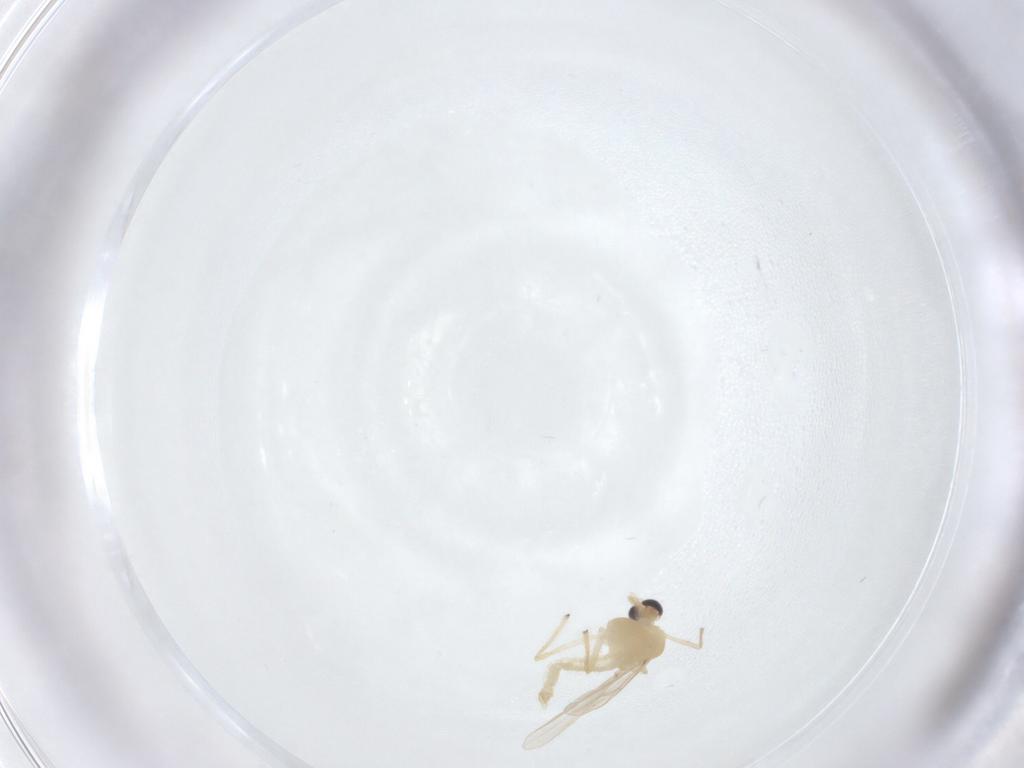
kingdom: Animalia
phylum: Arthropoda
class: Insecta
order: Diptera
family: Chironomidae
